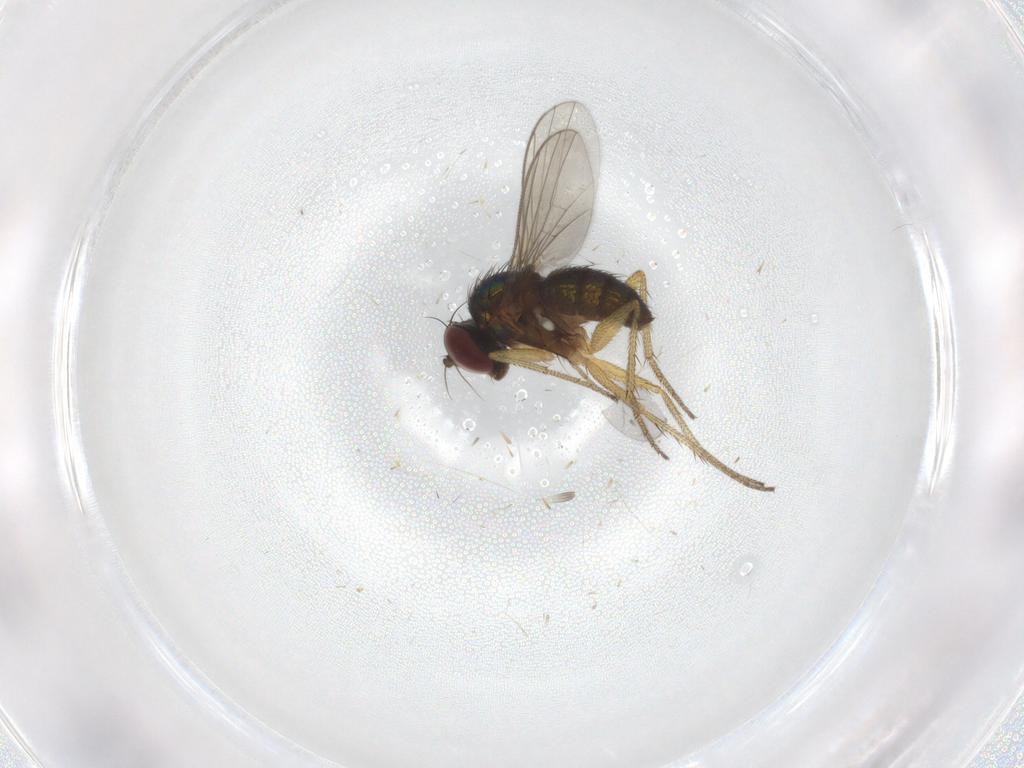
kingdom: Animalia
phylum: Arthropoda
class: Insecta
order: Diptera
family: Dolichopodidae
